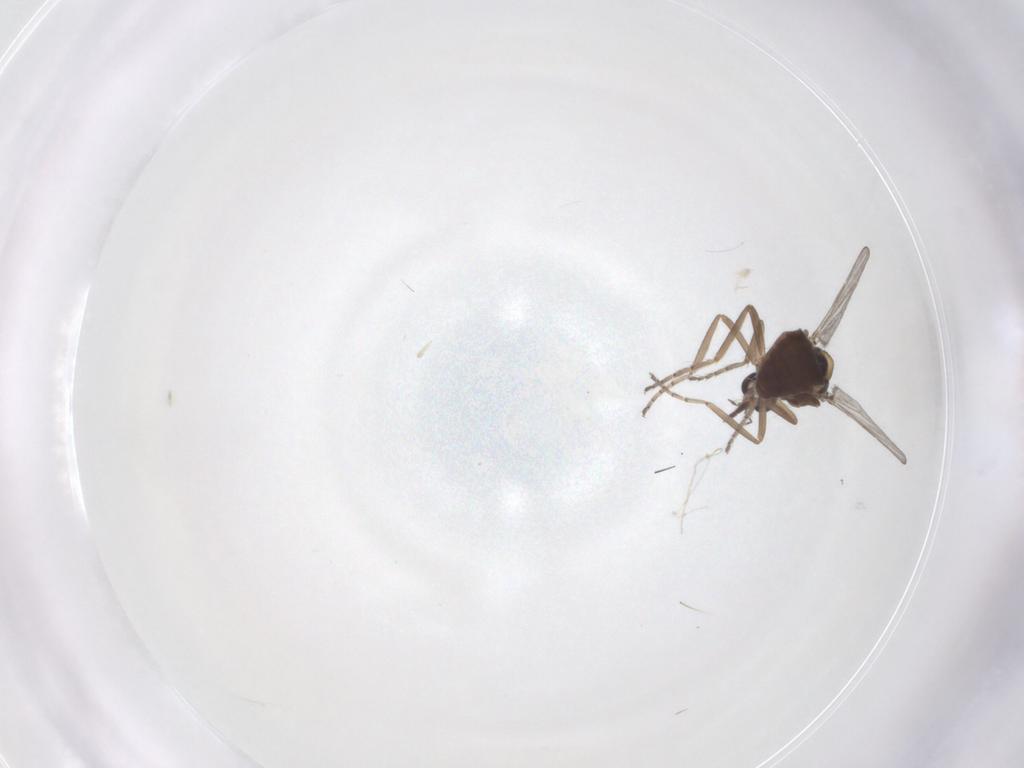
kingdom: Animalia
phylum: Arthropoda
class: Insecta
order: Diptera
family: Ceratopogonidae
